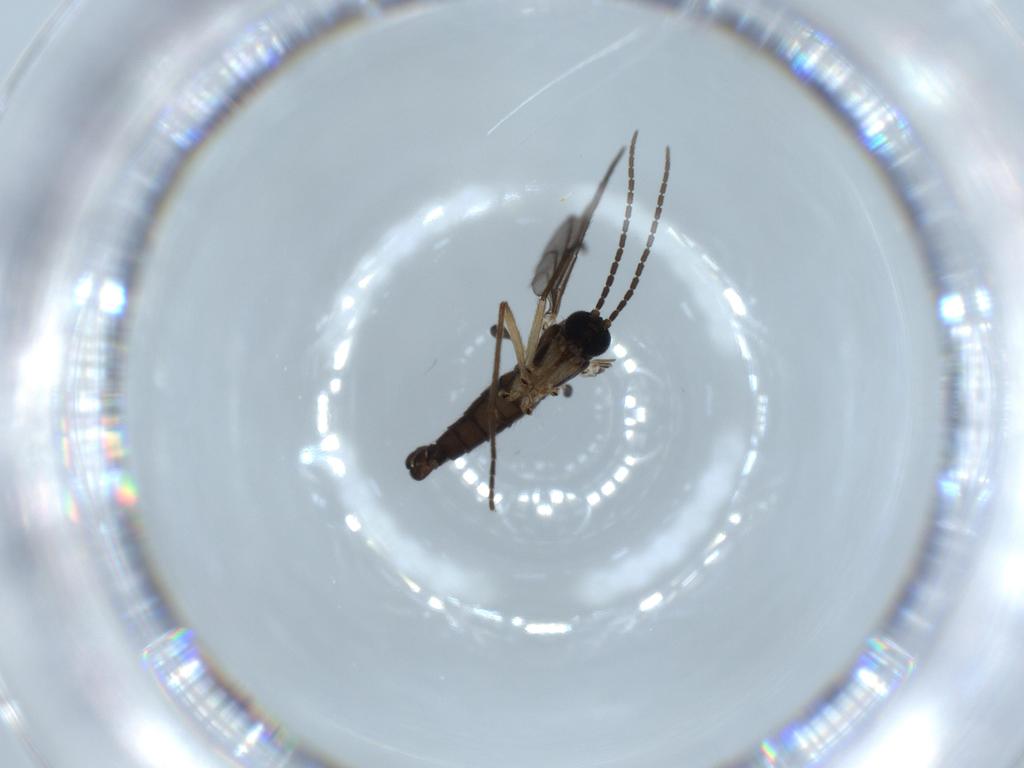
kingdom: Animalia
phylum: Arthropoda
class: Insecta
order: Diptera
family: Sciaridae
